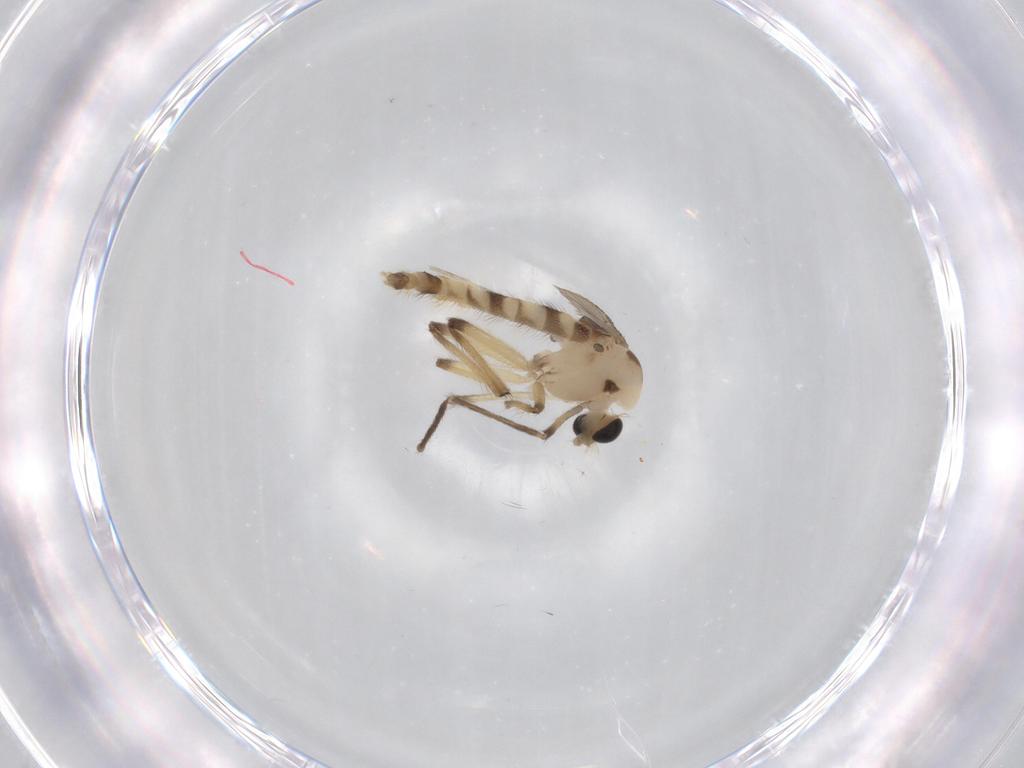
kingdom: Animalia
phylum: Arthropoda
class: Insecta
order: Diptera
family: Chironomidae
